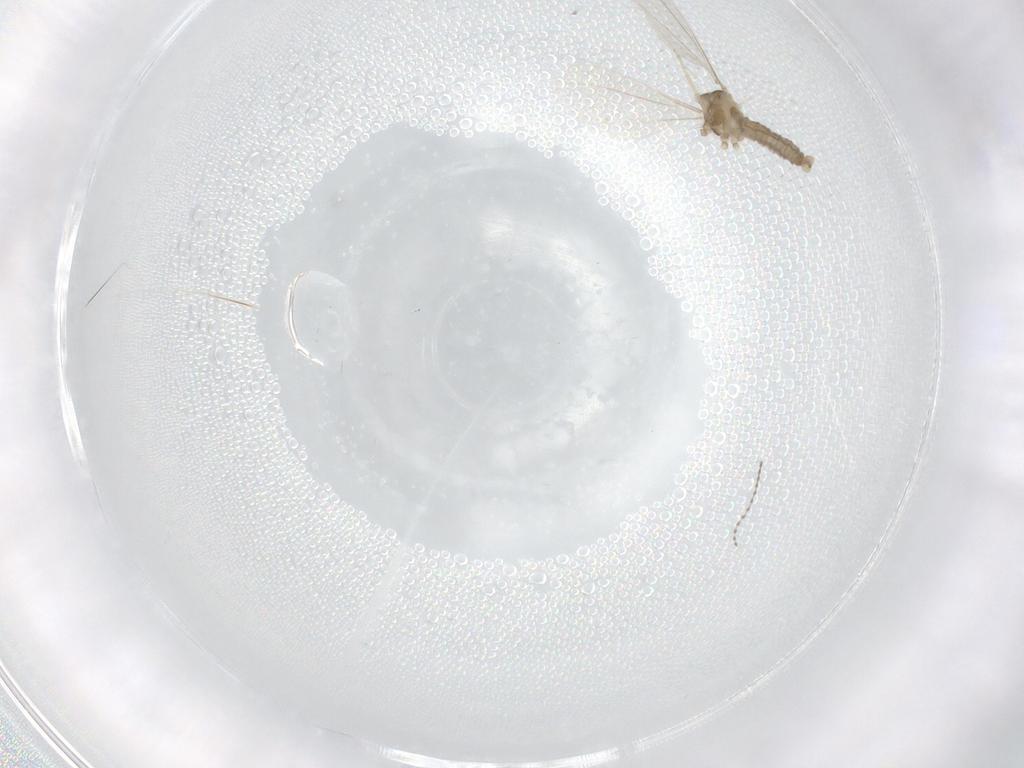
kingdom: Animalia
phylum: Arthropoda
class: Insecta
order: Diptera
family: Cecidomyiidae
